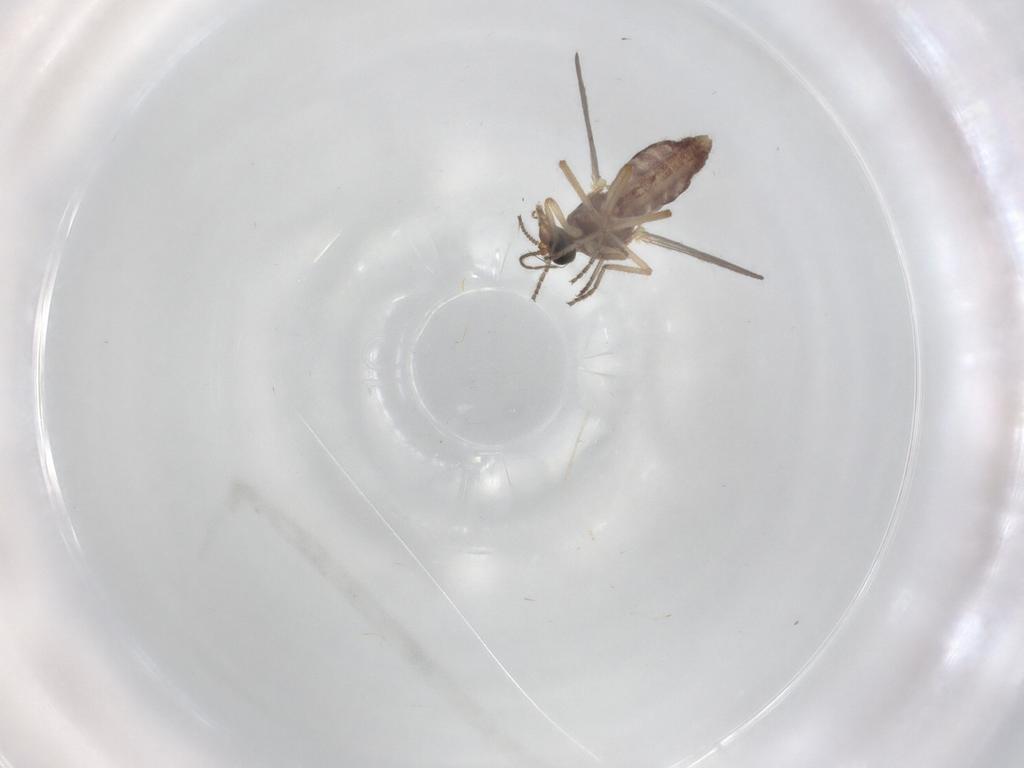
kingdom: Animalia
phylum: Arthropoda
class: Insecta
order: Diptera
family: Ceratopogonidae
